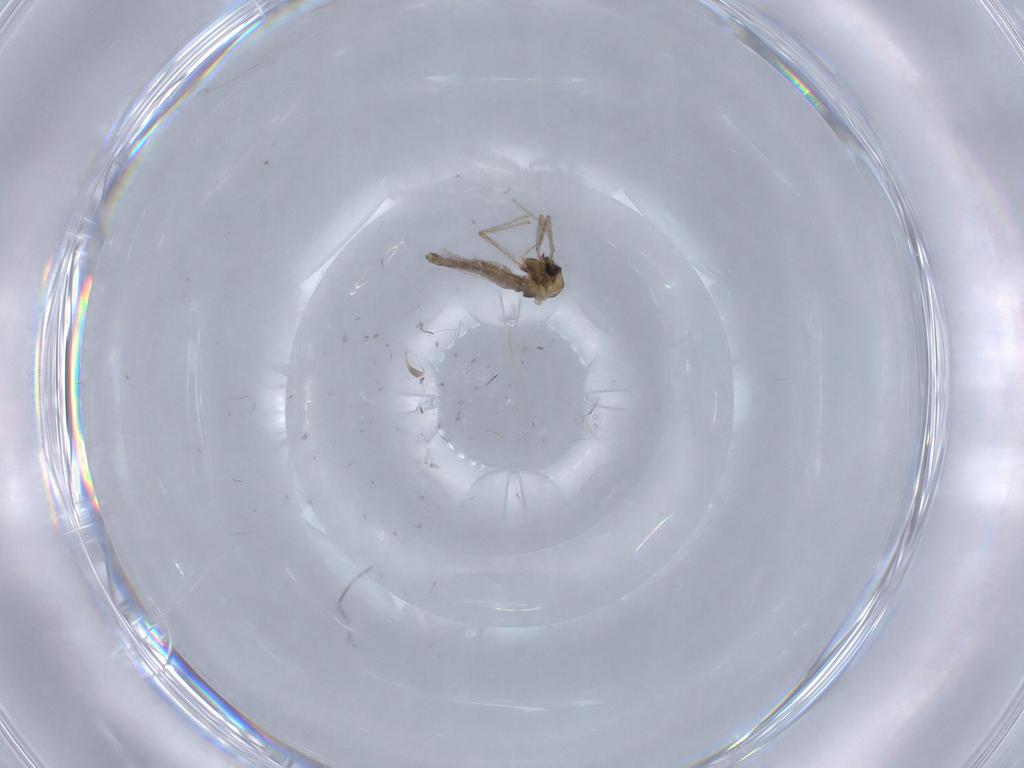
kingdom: Animalia
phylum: Arthropoda
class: Insecta
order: Diptera
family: Chironomidae
